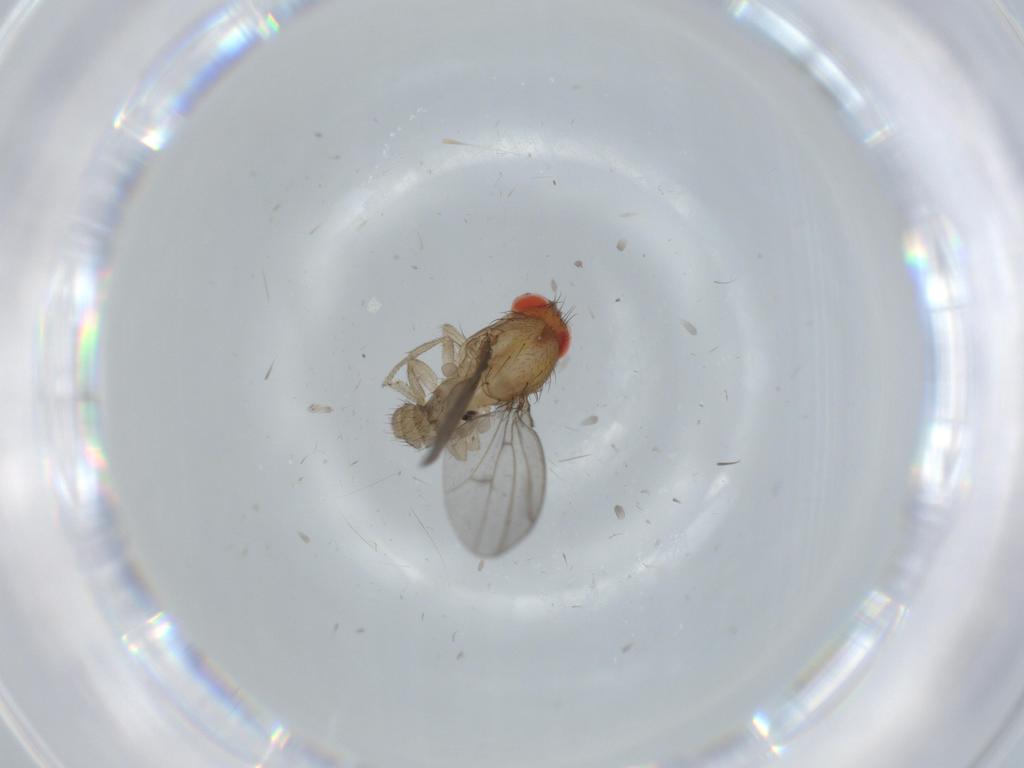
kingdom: Animalia
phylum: Arthropoda
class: Insecta
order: Diptera
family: Drosophilidae
